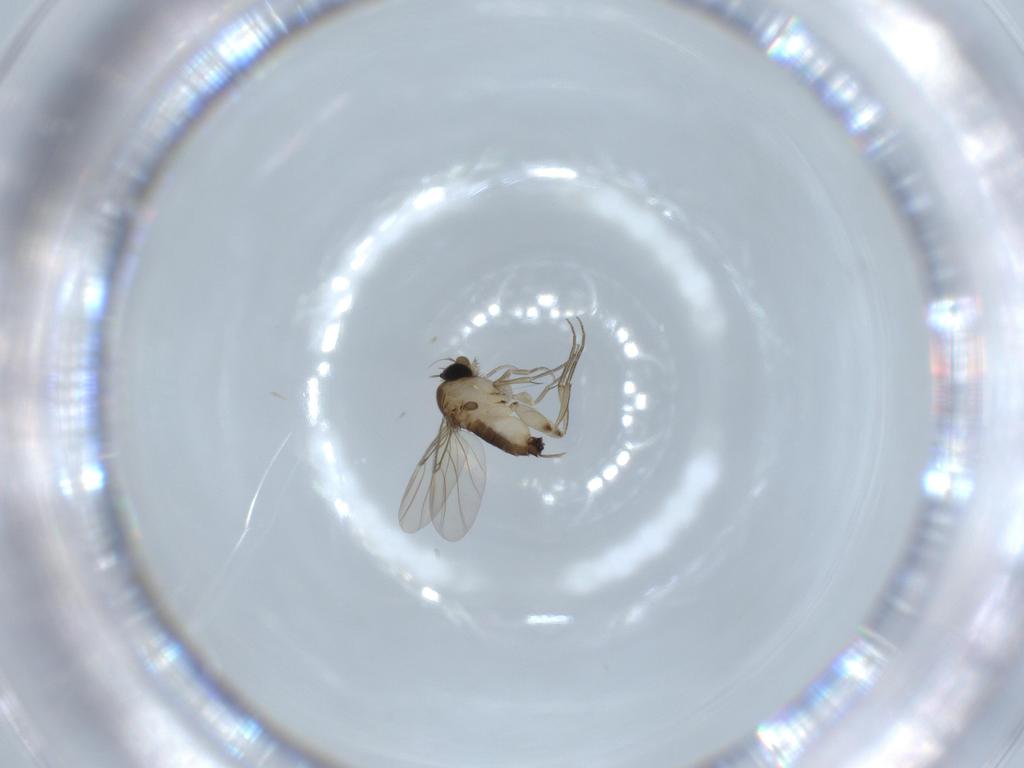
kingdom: Animalia
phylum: Arthropoda
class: Insecta
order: Diptera
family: Phoridae
